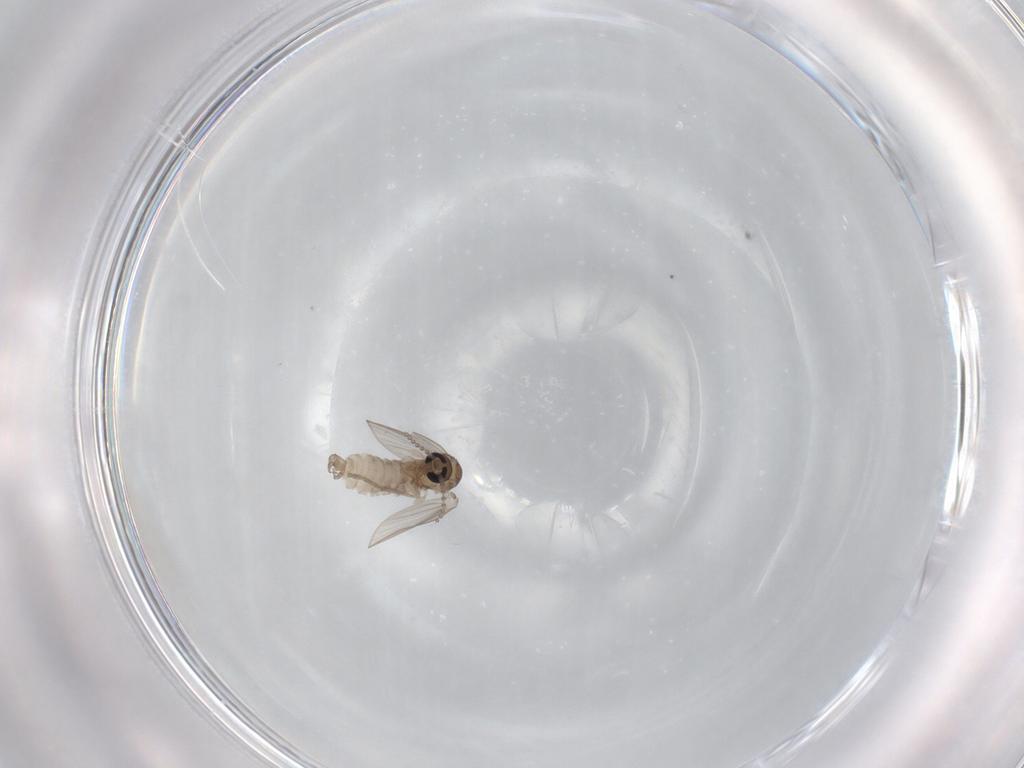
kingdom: Animalia
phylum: Arthropoda
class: Insecta
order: Diptera
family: Psychodidae
